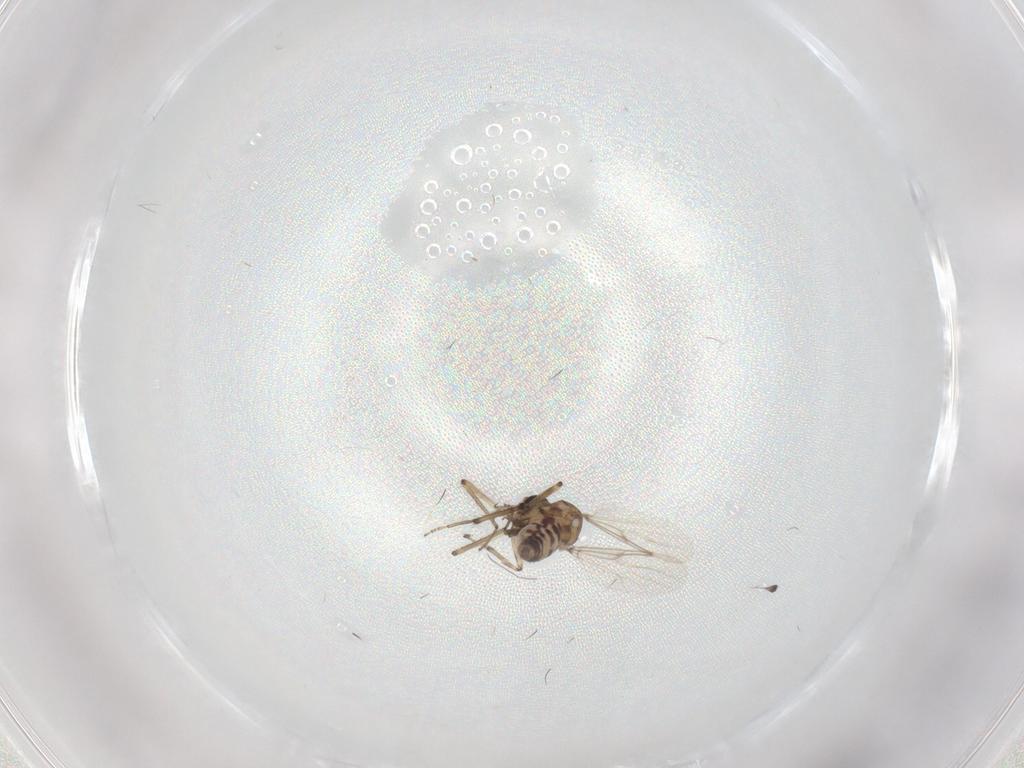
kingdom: Animalia
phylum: Arthropoda
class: Insecta
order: Diptera
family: Ceratopogonidae
